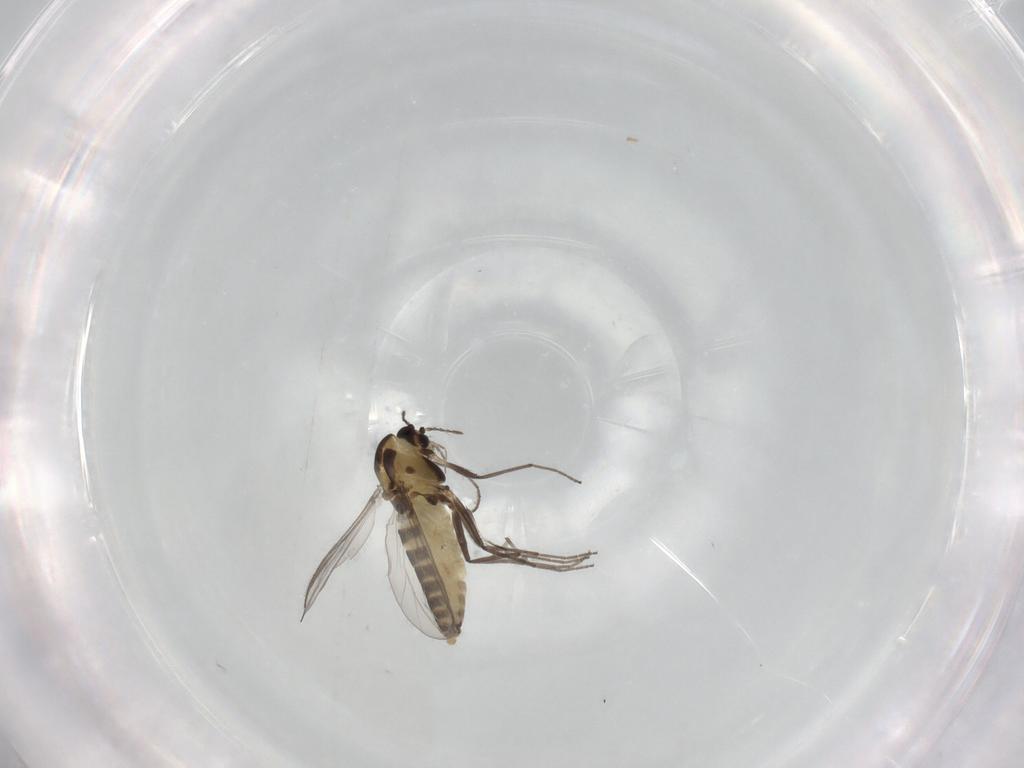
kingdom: Animalia
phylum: Arthropoda
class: Insecta
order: Diptera
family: Chironomidae
